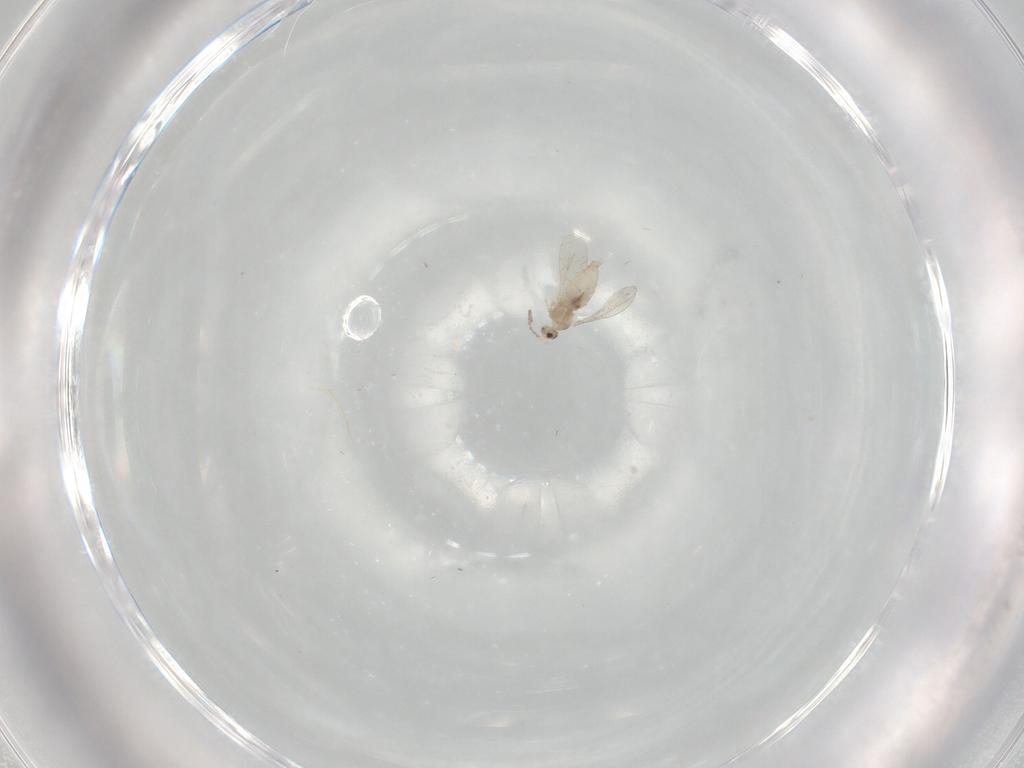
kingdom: Animalia
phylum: Arthropoda
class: Insecta
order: Diptera
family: Cecidomyiidae
